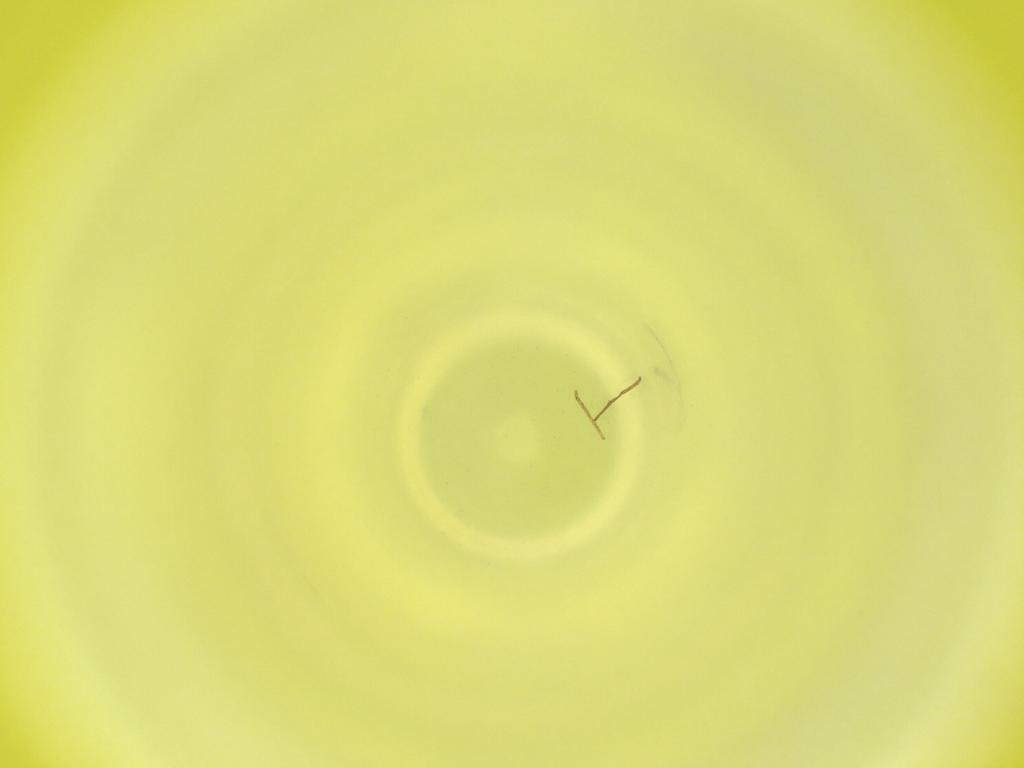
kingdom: Animalia
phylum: Arthropoda
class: Insecta
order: Diptera
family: Cecidomyiidae
